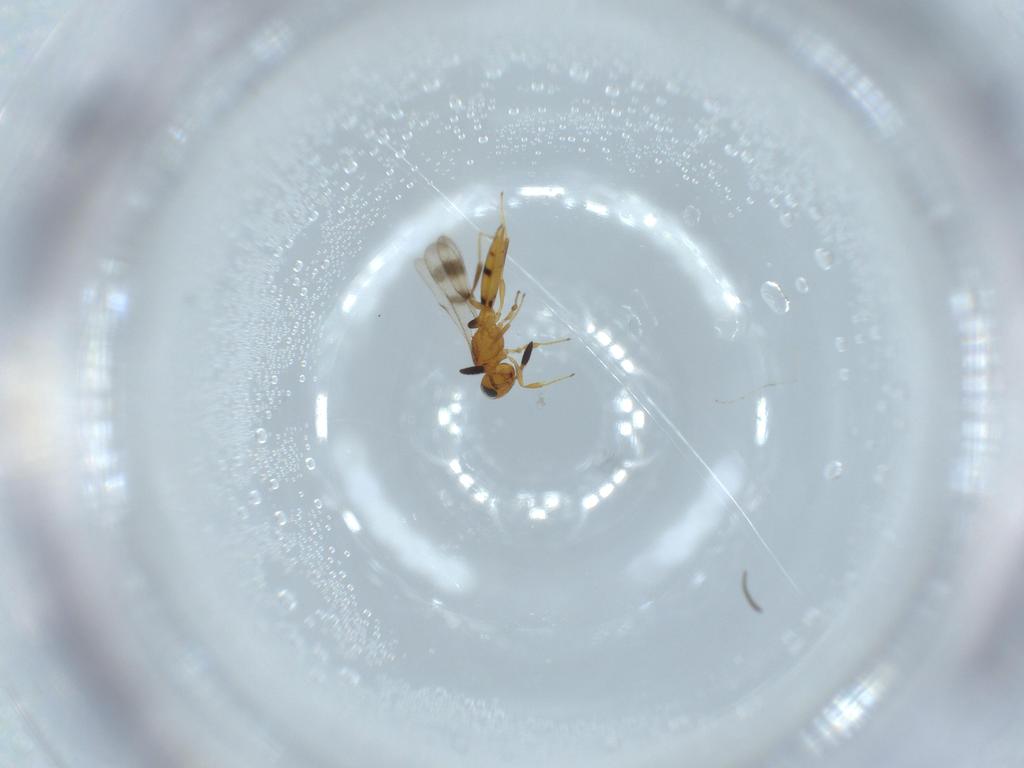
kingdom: Animalia
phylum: Arthropoda
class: Insecta
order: Hymenoptera
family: Scelionidae
